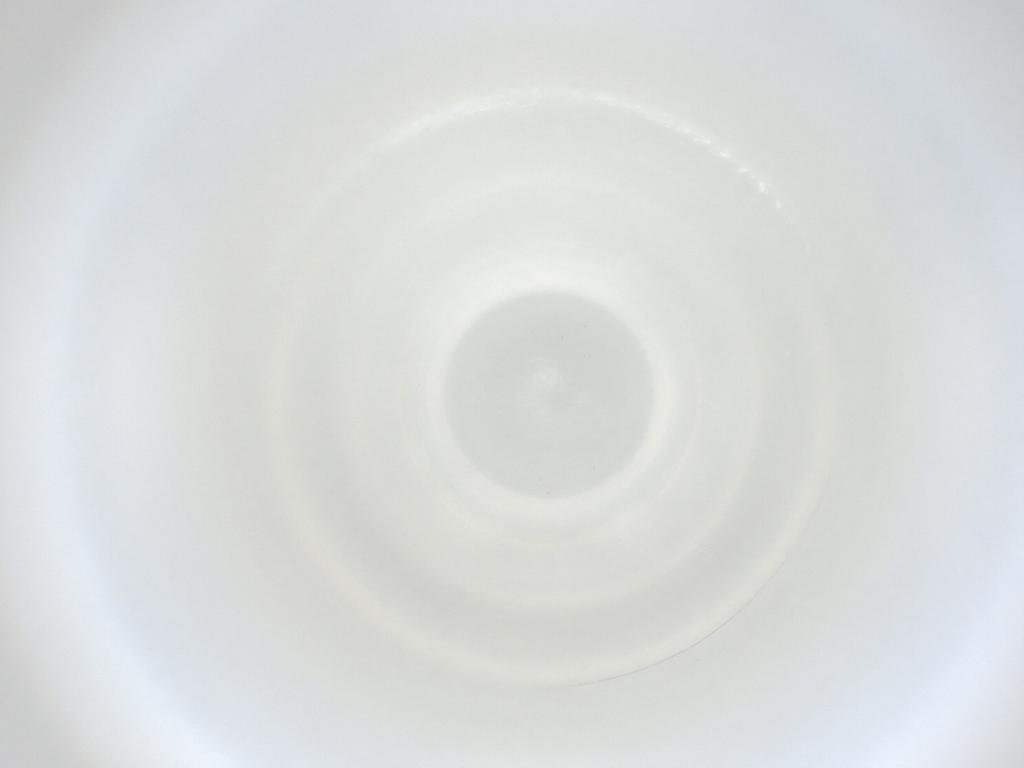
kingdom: Animalia
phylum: Arthropoda
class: Insecta
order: Diptera
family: Cecidomyiidae
